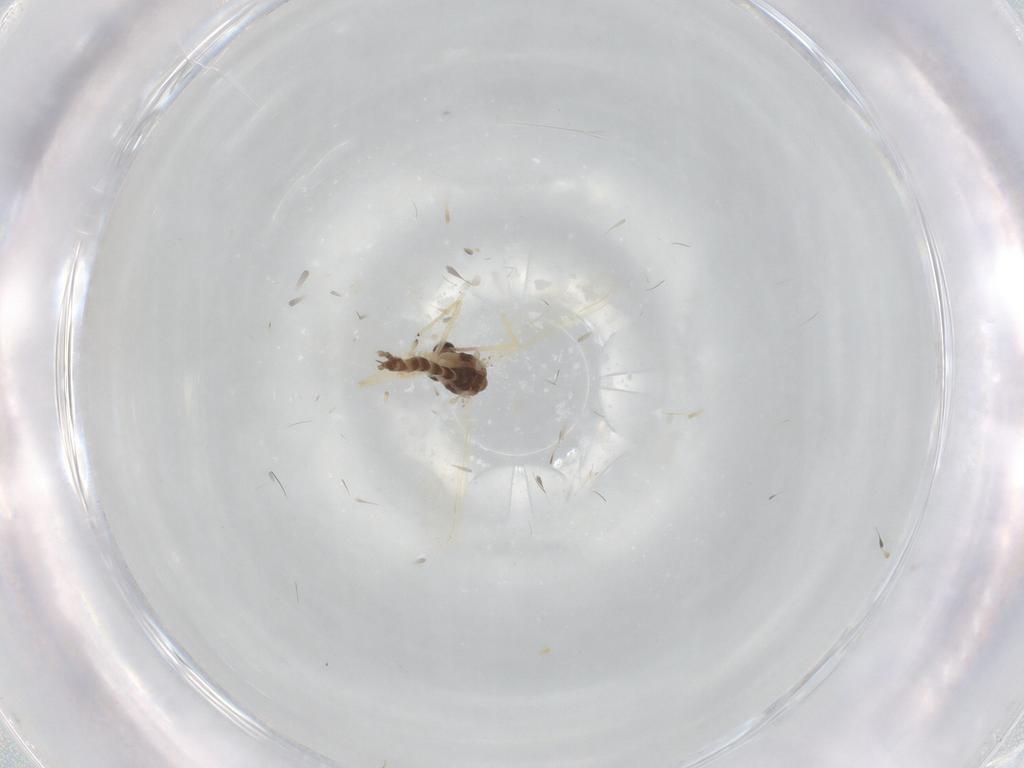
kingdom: Animalia
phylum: Arthropoda
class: Insecta
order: Diptera
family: Chironomidae
